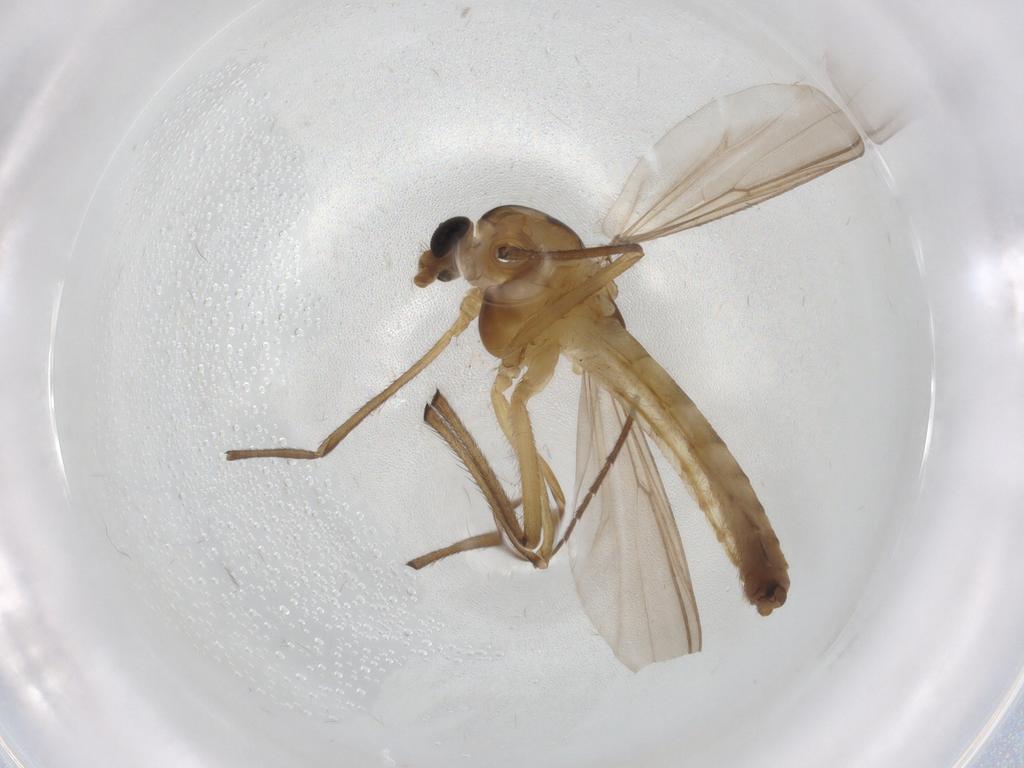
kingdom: Animalia
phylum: Arthropoda
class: Insecta
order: Diptera
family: Chironomidae
